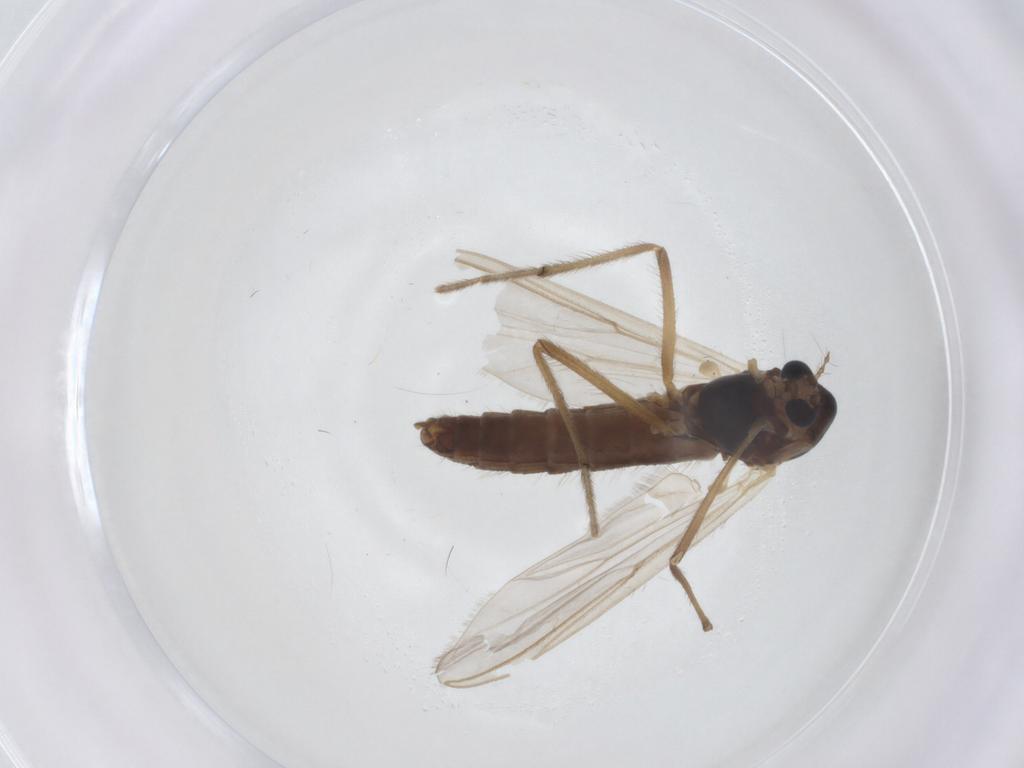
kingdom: Animalia
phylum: Arthropoda
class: Insecta
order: Diptera
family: Chironomidae
